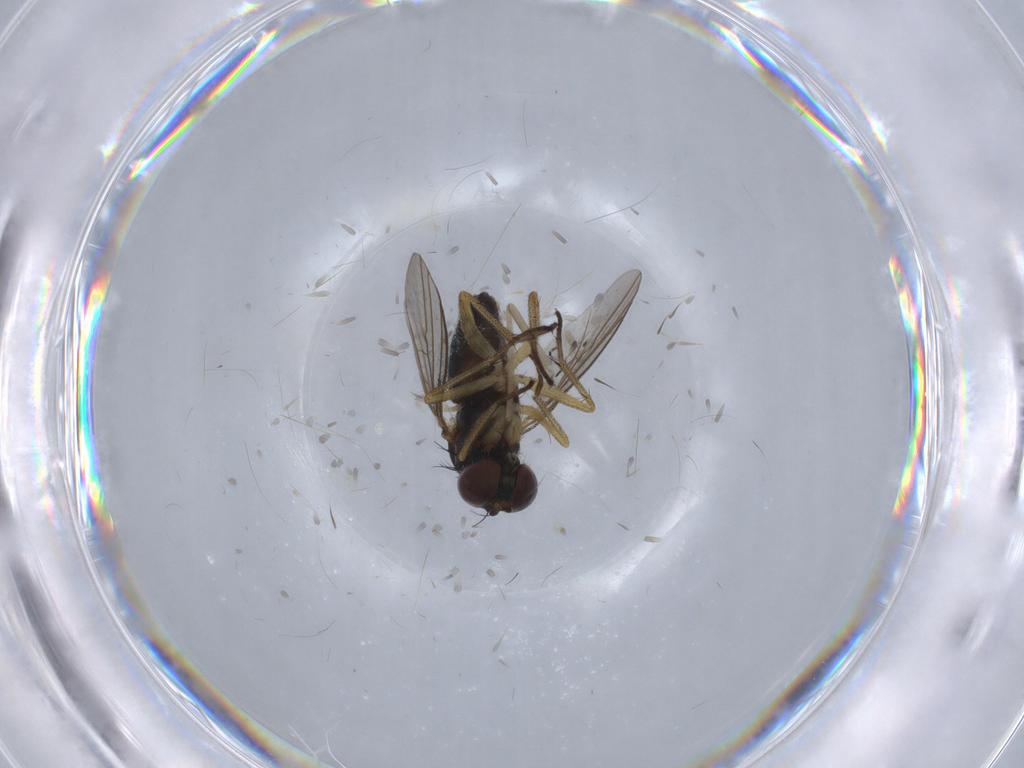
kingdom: Animalia
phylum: Arthropoda
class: Insecta
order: Diptera
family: Dolichopodidae
